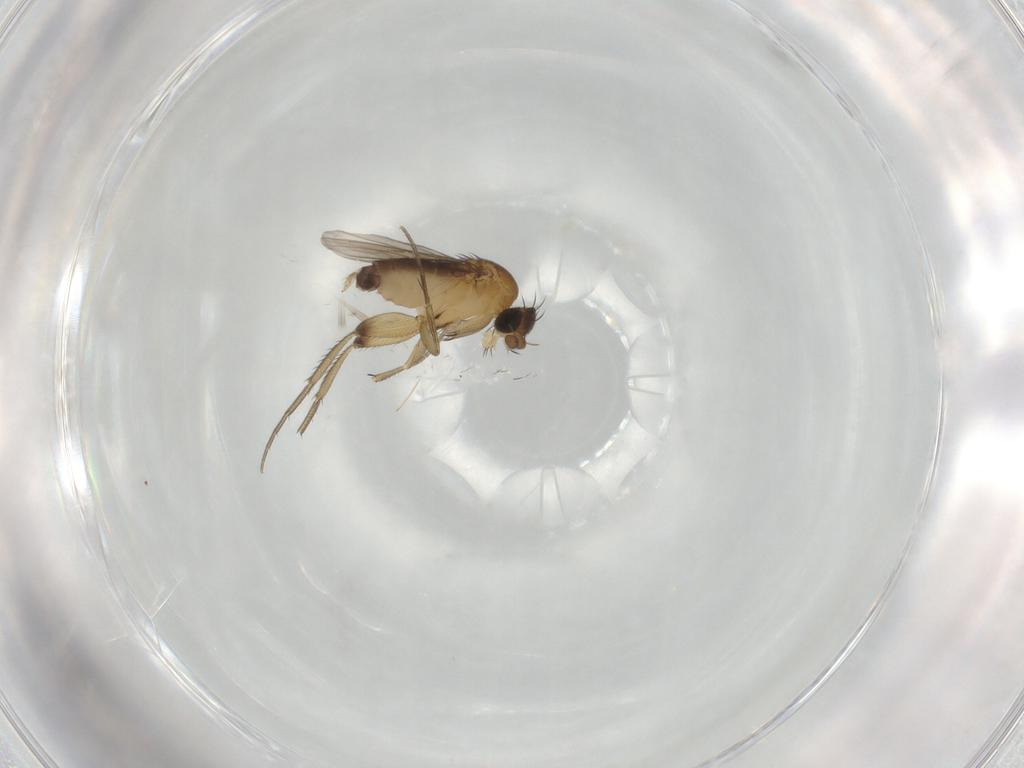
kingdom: Animalia
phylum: Arthropoda
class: Insecta
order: Diptera
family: Phoridae
